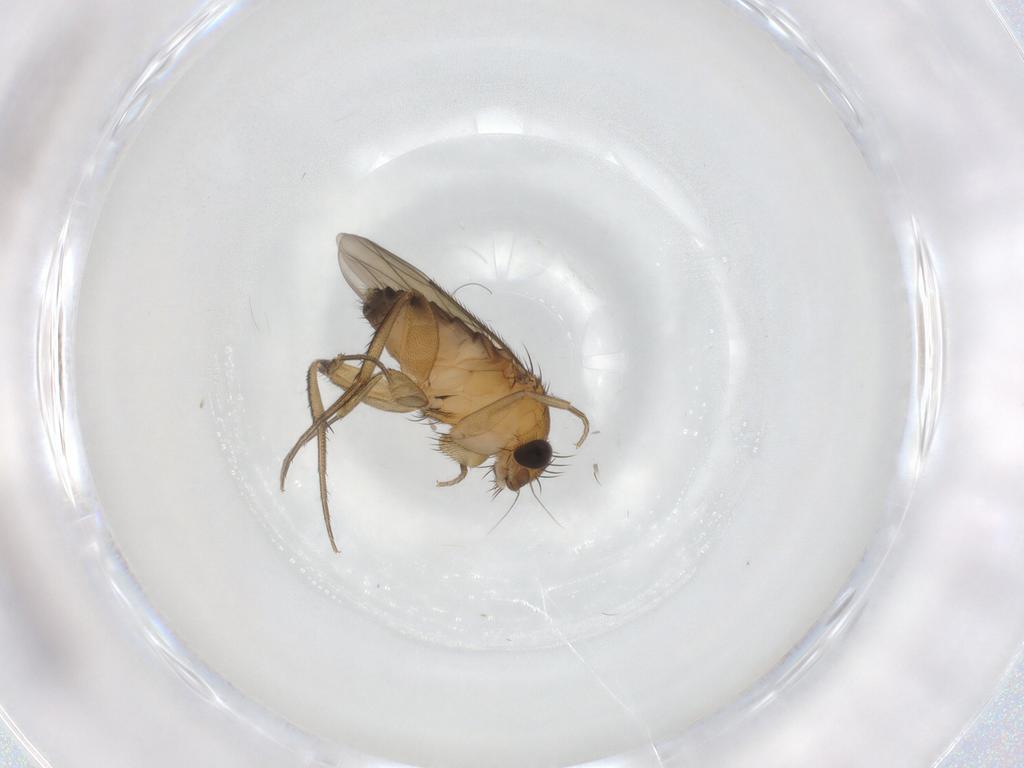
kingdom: Animalia
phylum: Arthropoda
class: Insecta
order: Diptera
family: Phoridae
